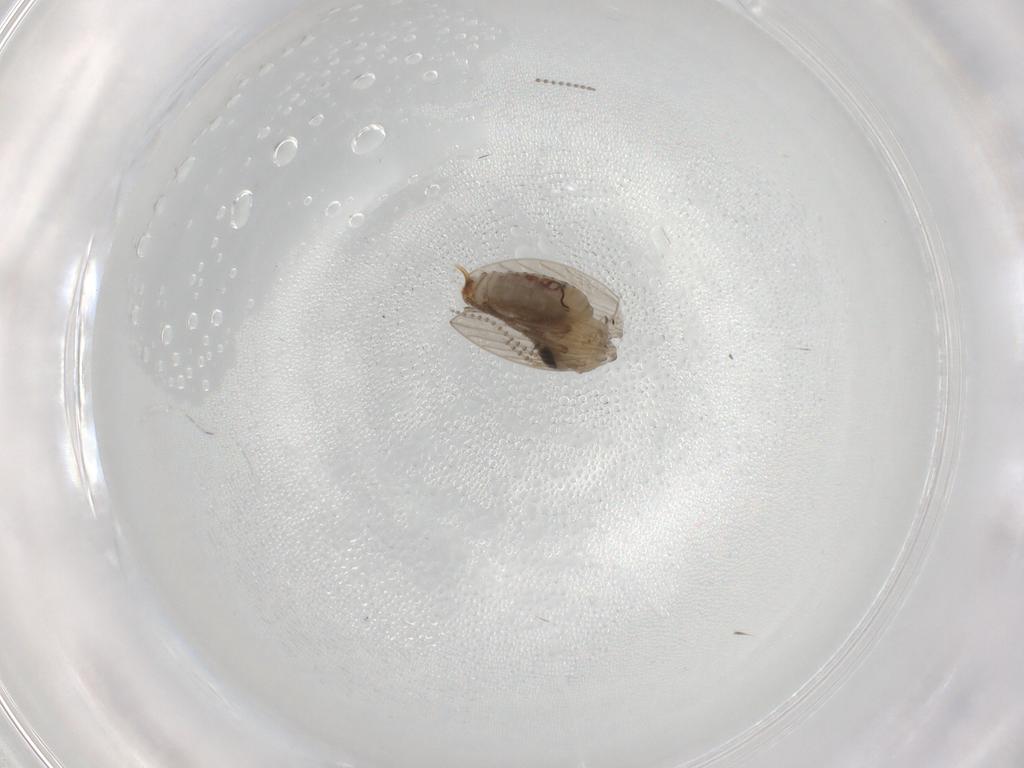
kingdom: Animalia
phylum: Arthropoda
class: Insecta
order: Diptera
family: Psychodidae
